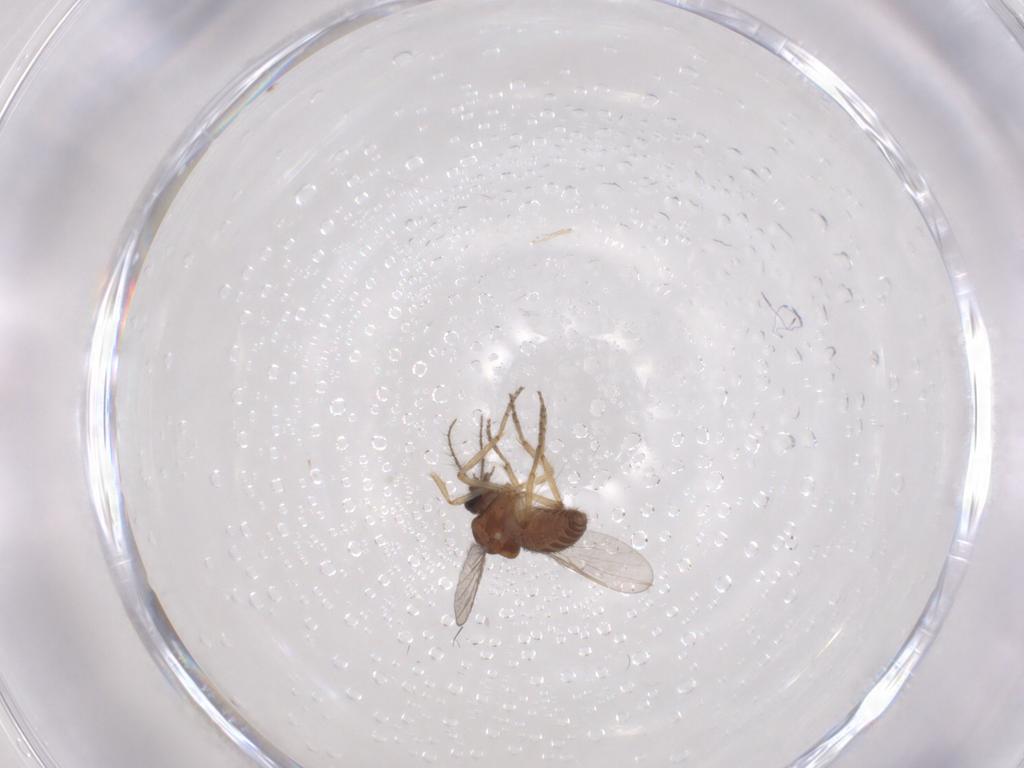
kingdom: Animalia
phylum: Arthropoda
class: Insecta
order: Diptera
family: Ceratopogonidae
